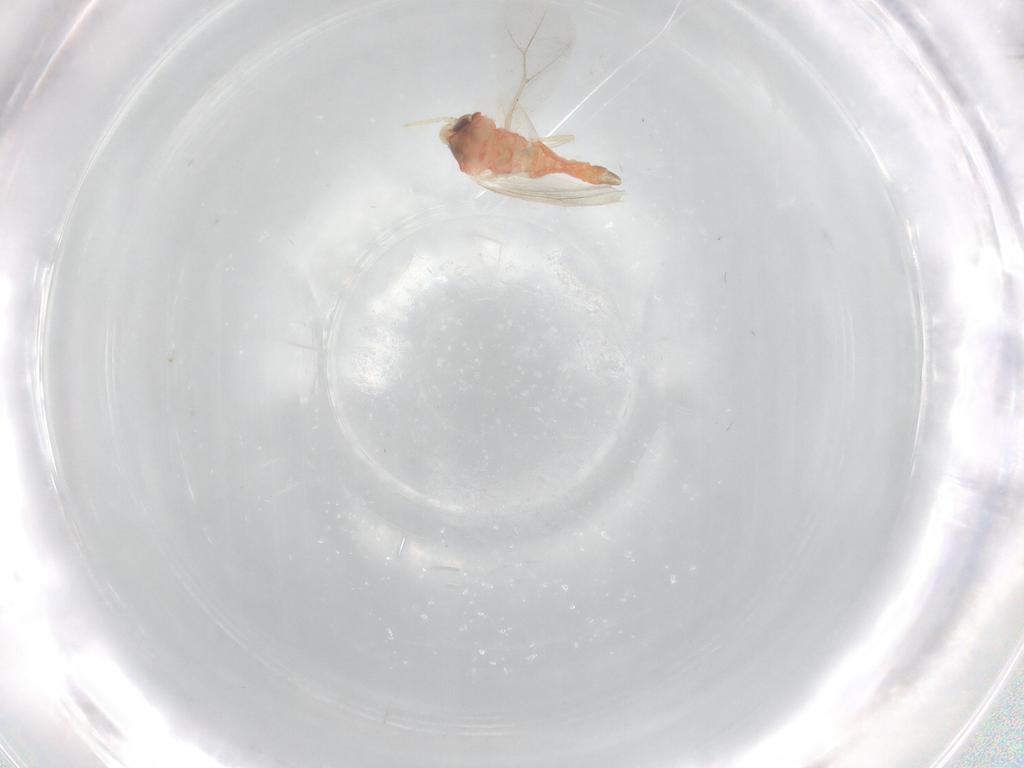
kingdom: Animalia
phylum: Arthropoda
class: Insecta
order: Hemiptera
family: Aleyrodidae
